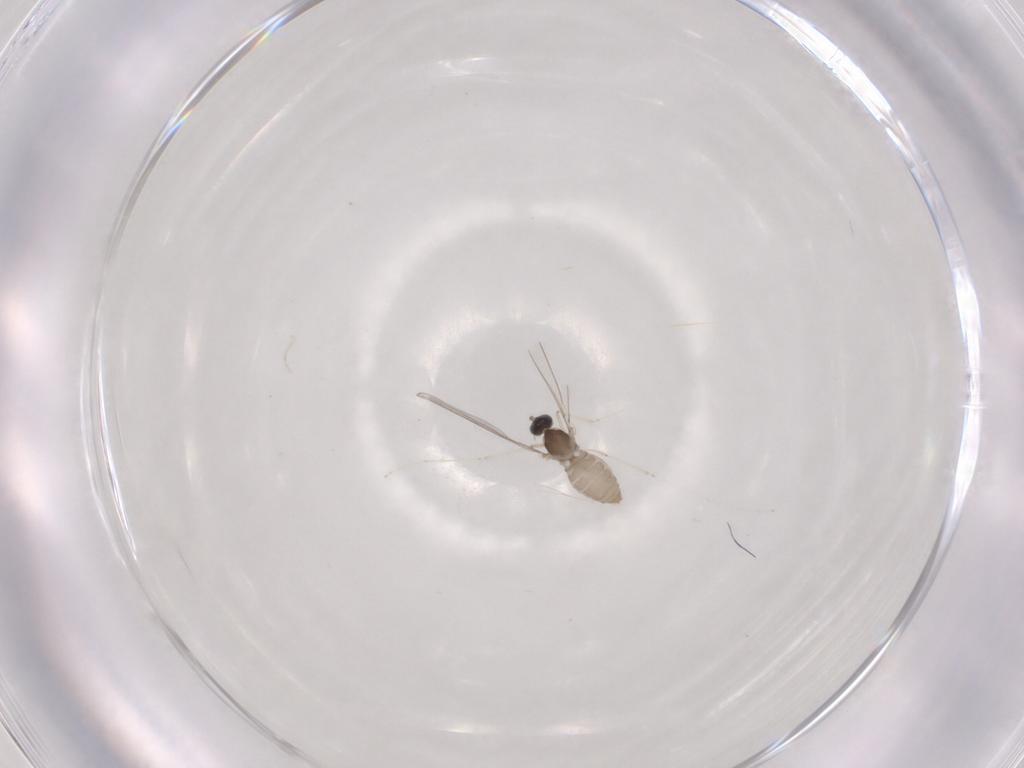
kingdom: Animalia
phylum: Arthropoda
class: Insecta
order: Diptera
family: Cecidomyiidae
